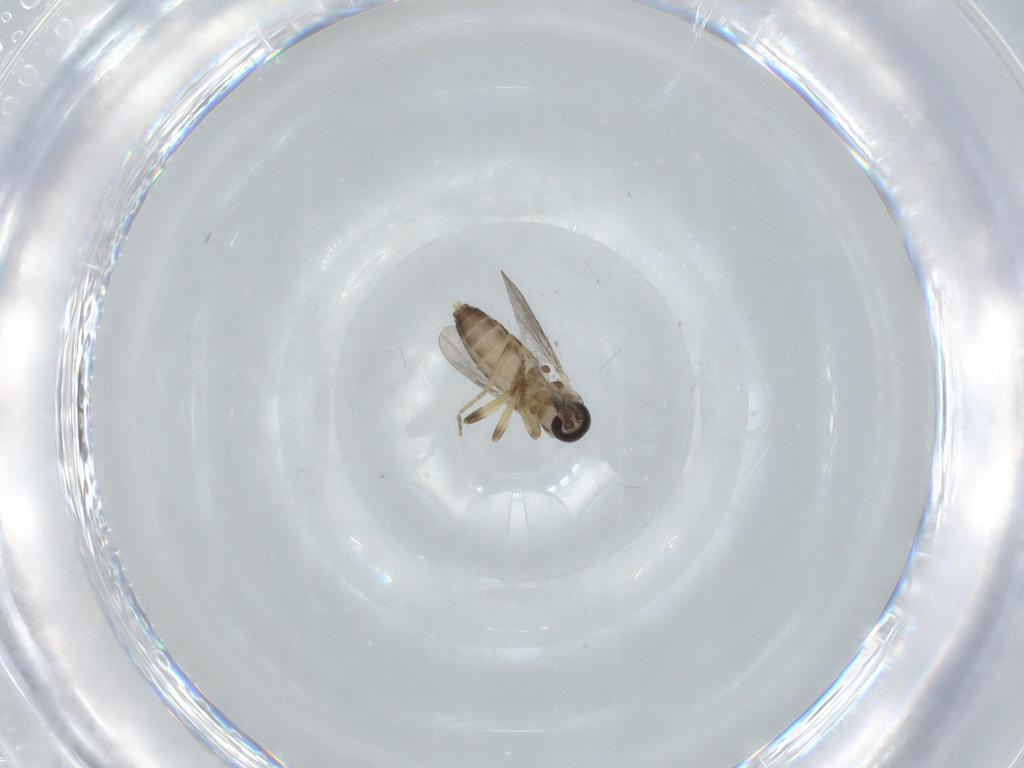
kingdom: Animalia
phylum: Arthropoda
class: Insecta
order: Diptera
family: Ceratopogonidae
